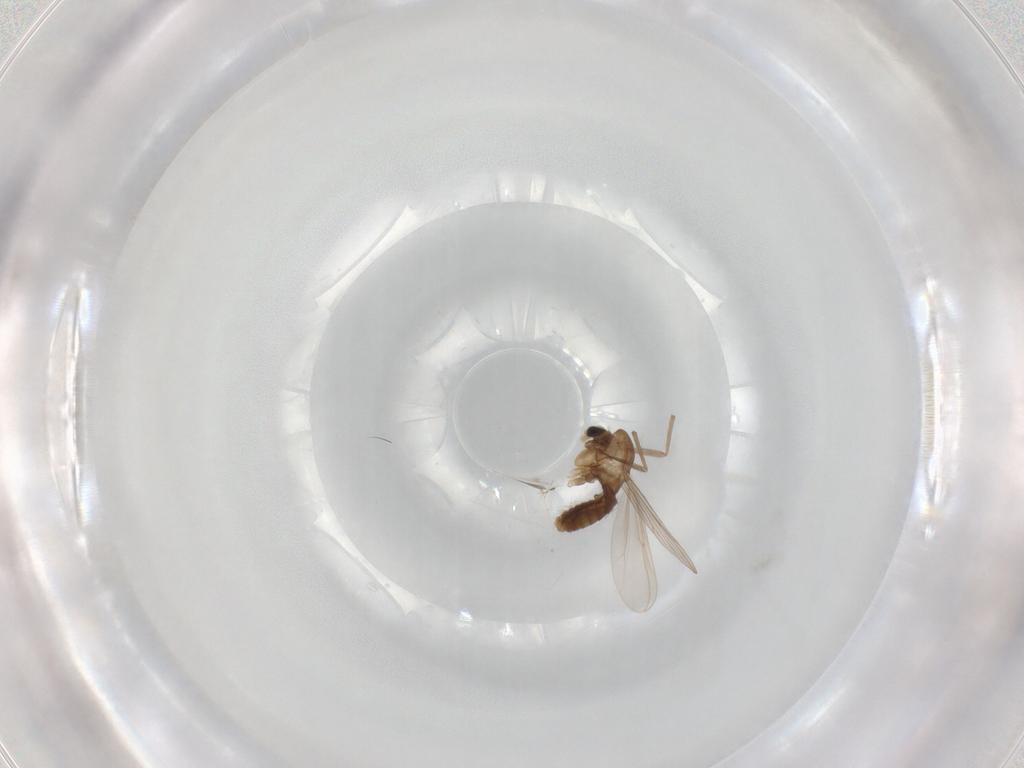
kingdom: Animalia
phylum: Arthropoda
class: Insecta
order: Diptera
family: Chironomidae
